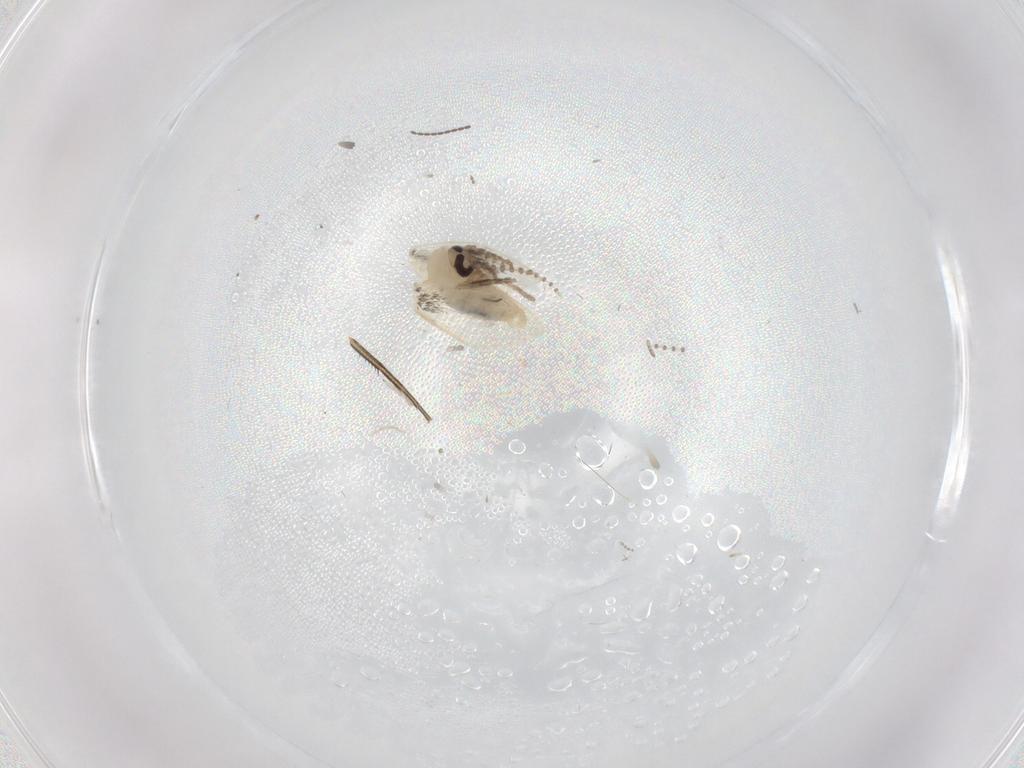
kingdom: Animalia
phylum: Arthropoda
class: Insecta
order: Diptera
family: Psychodidae
